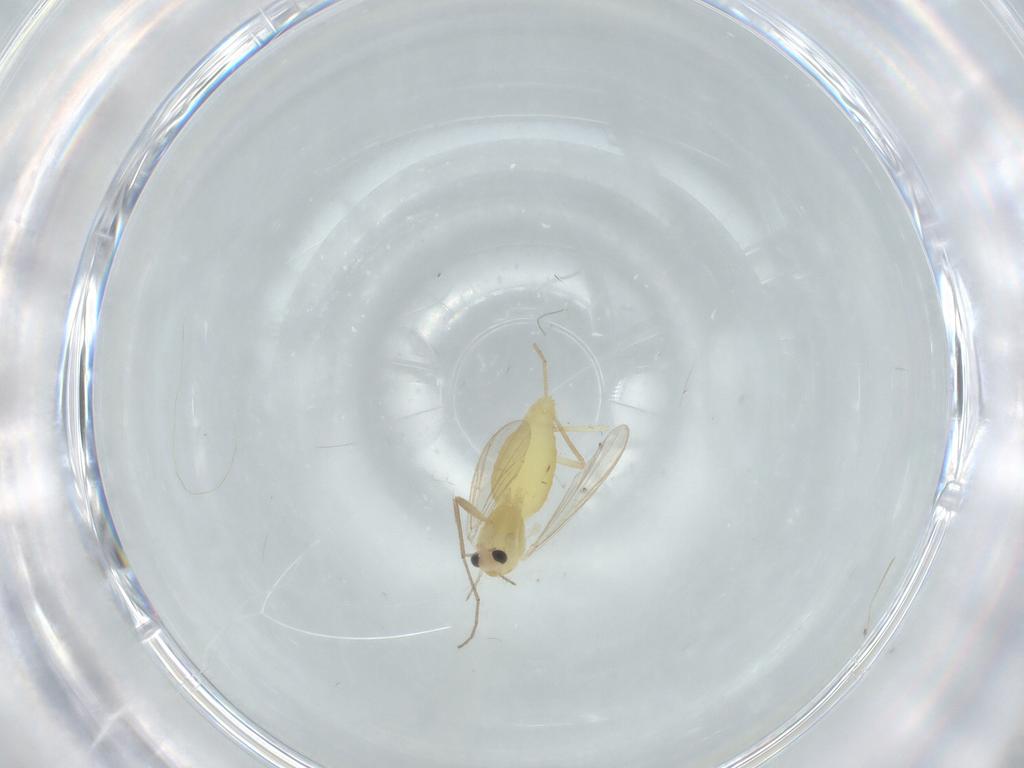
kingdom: Animalia
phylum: Arthropoda
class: Insecta
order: Diptera
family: Chironomidae
